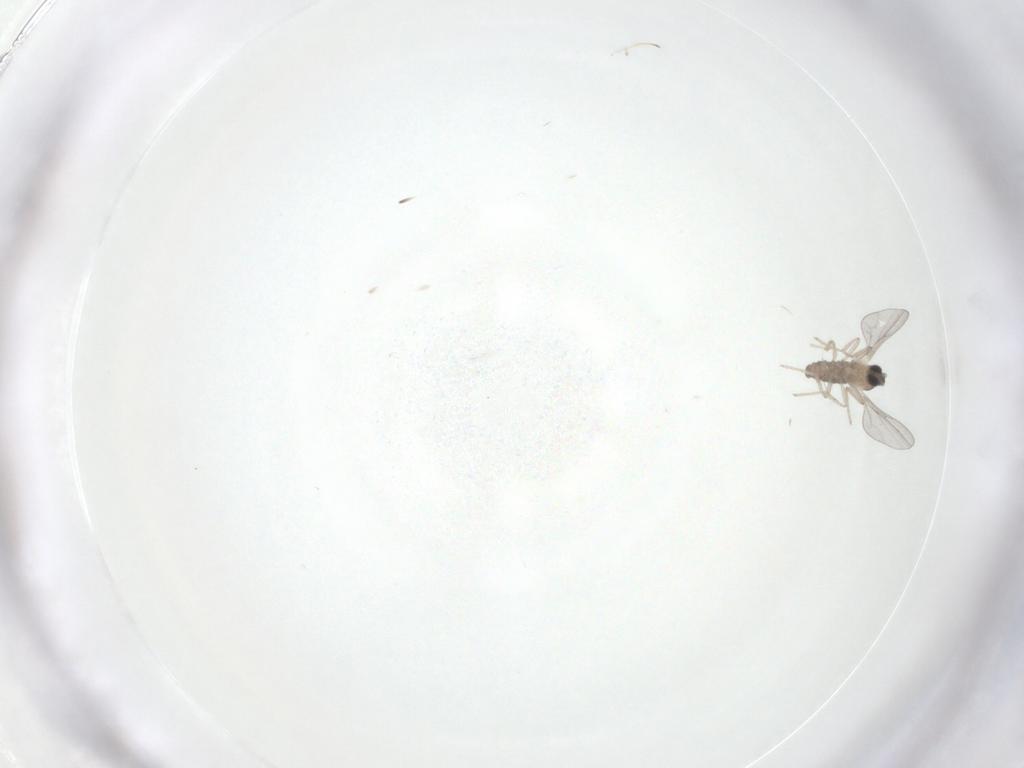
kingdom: Animalia
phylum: Arthropoda
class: Insecta
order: Diptera
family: Cecidomyiidae
